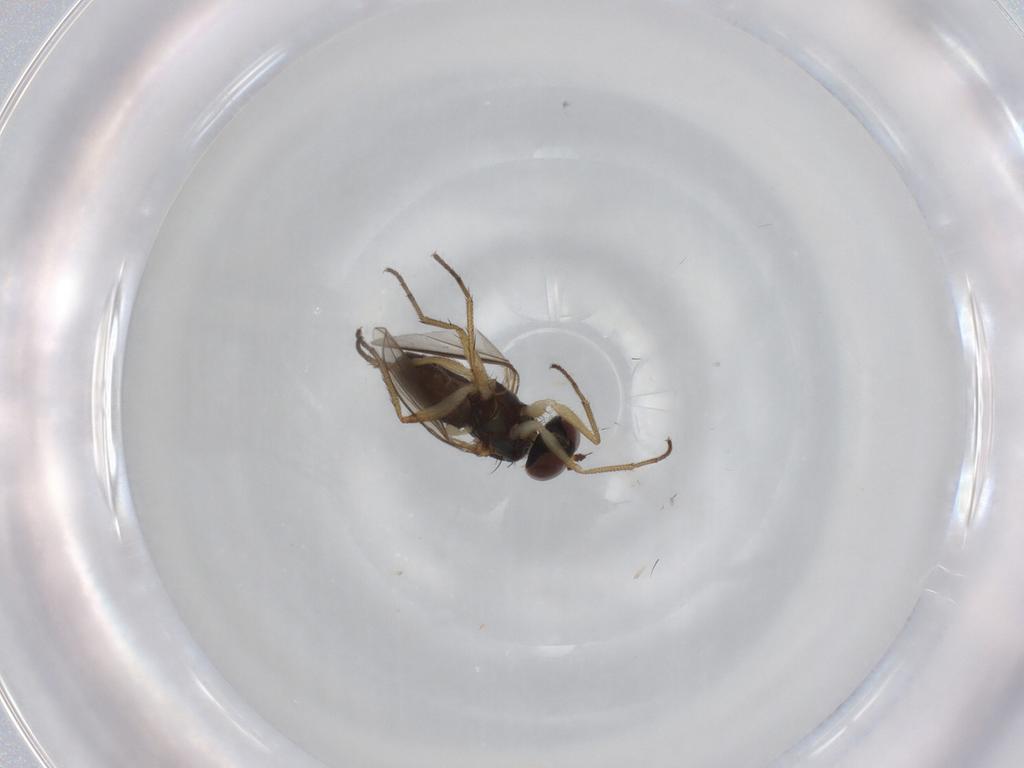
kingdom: Animalia
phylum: Arthropoda
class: Insecta
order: Diptera
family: Dolichopodidae
